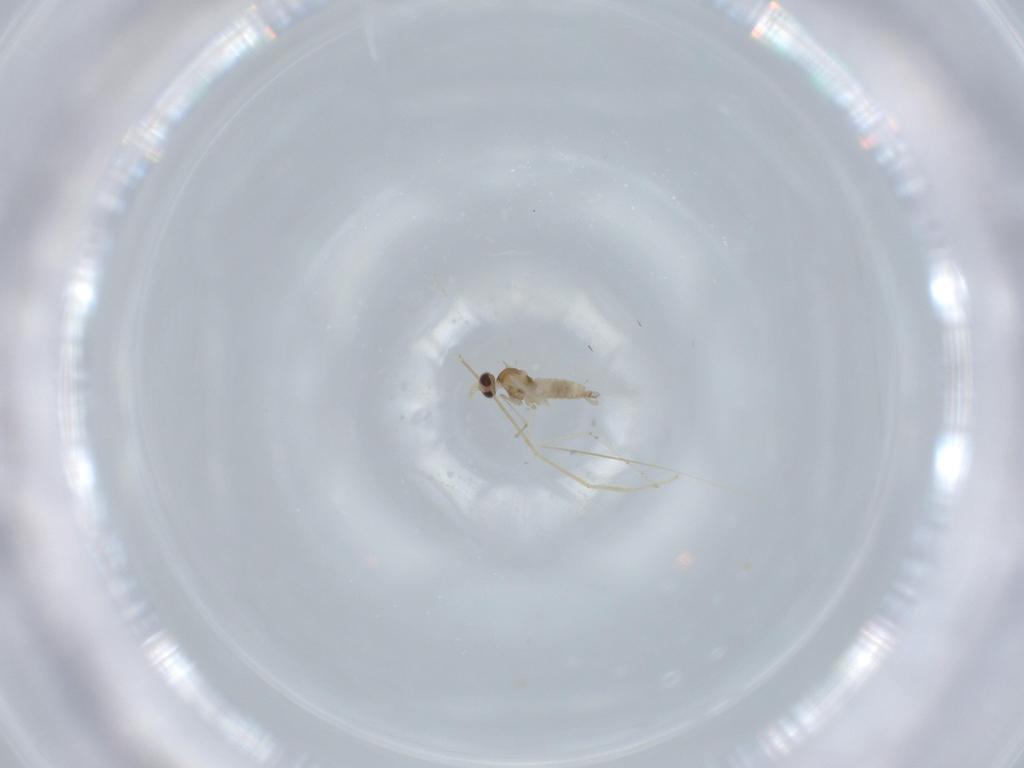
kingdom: Animalia
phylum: Arthropoda
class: Insecta
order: Diptera
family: Cecidomyiidae
